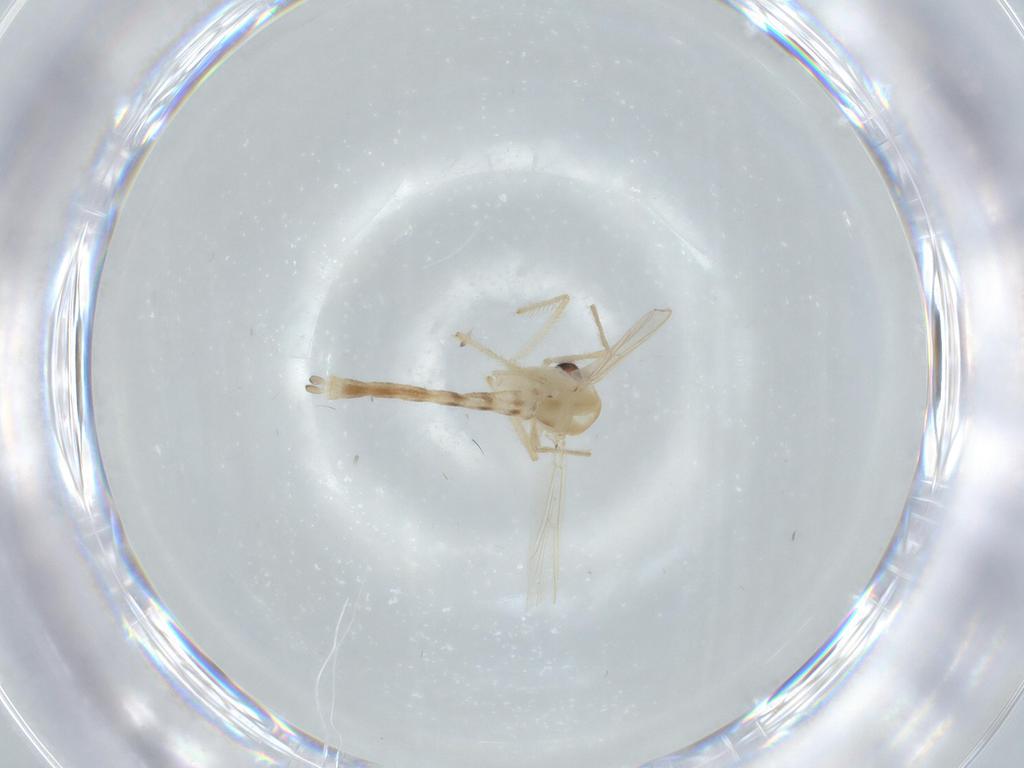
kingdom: Animalia
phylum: Arthropoda
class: Insecta
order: Diptera
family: Chironomidae
